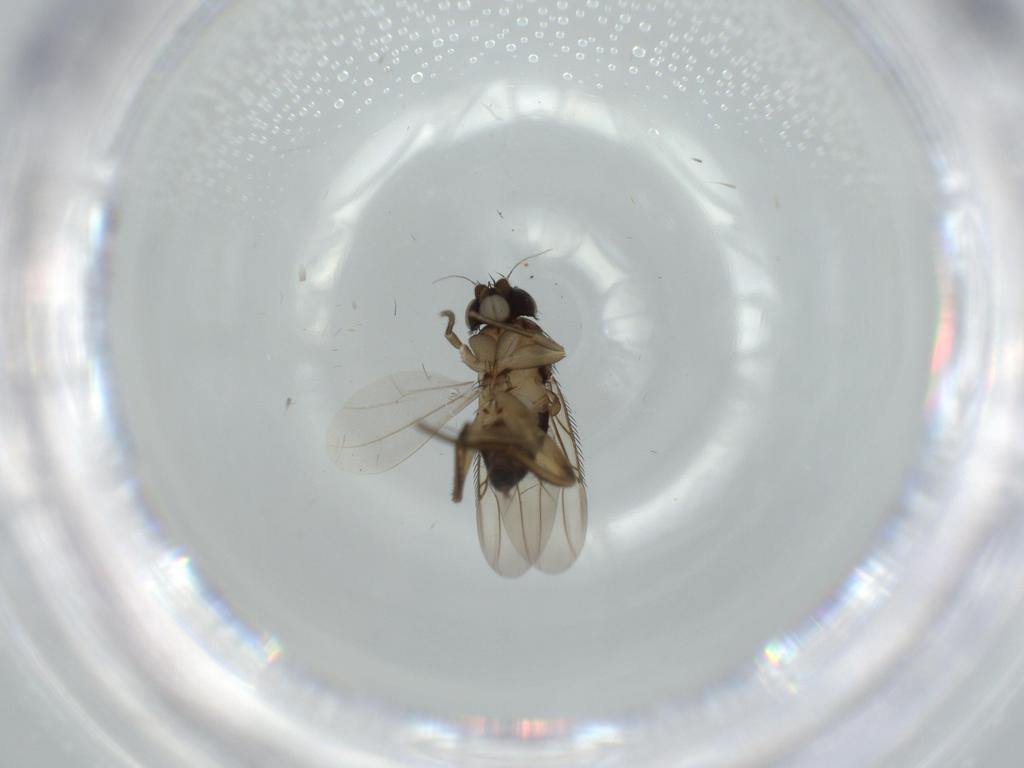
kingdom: Animalia
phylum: Arthropoda
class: Insecta
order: Diptera
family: Phoridae
